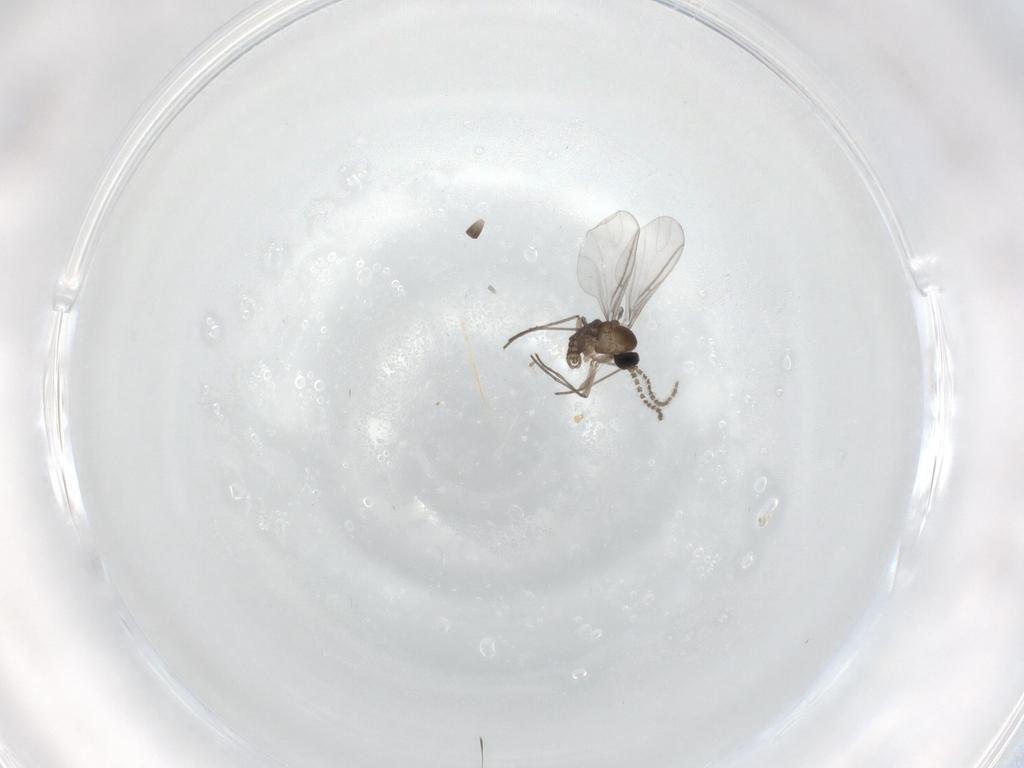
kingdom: Animalia
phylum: Arthropoda
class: Insecta
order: Diptera
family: Sciaridae
